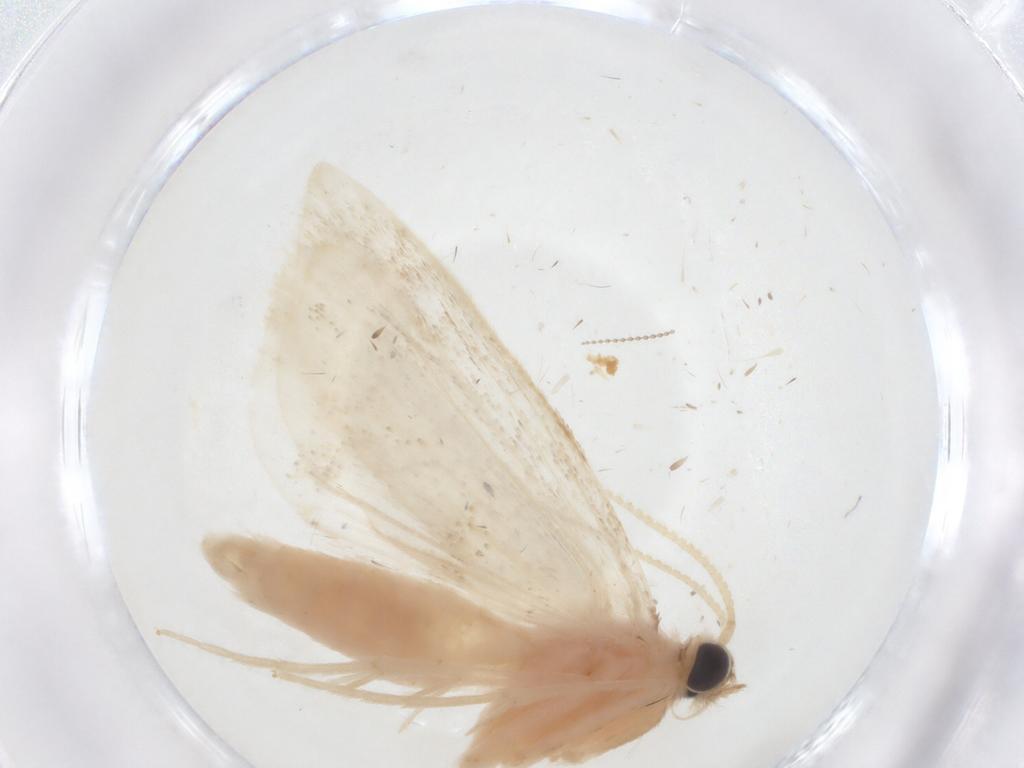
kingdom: Animalia
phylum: Arthropoda
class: Insecta
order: Lepidoptera
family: Crambidae
